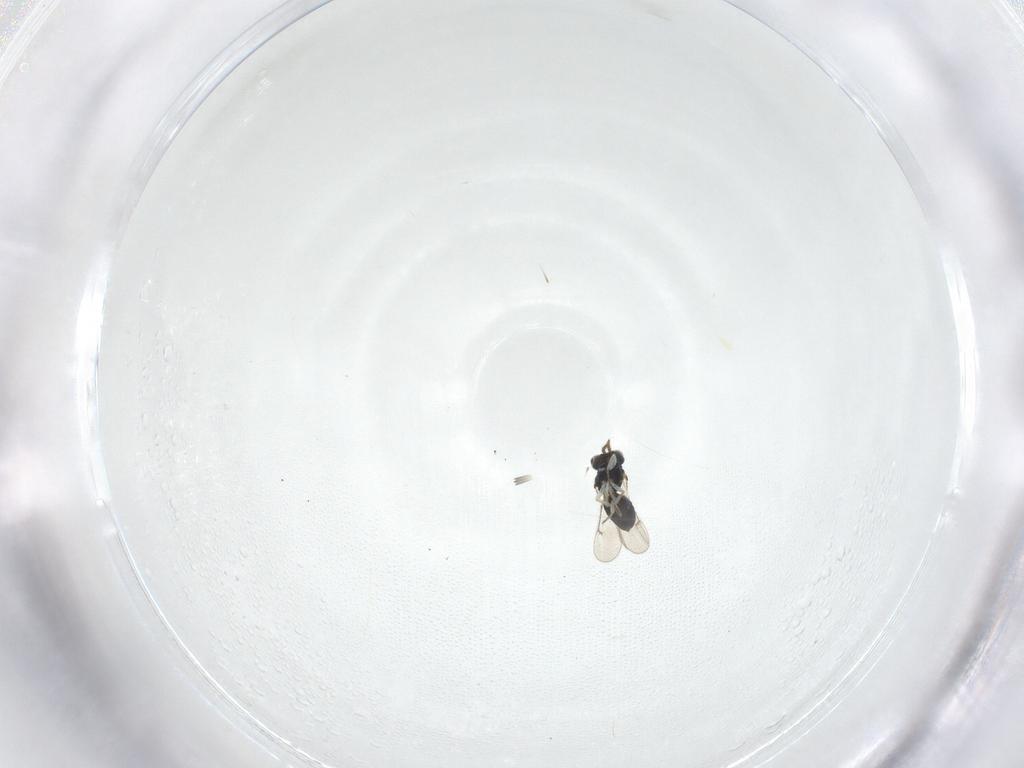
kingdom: Animalia
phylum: Arthropoda
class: Insecta
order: Hymenoptera
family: Eulophidae
